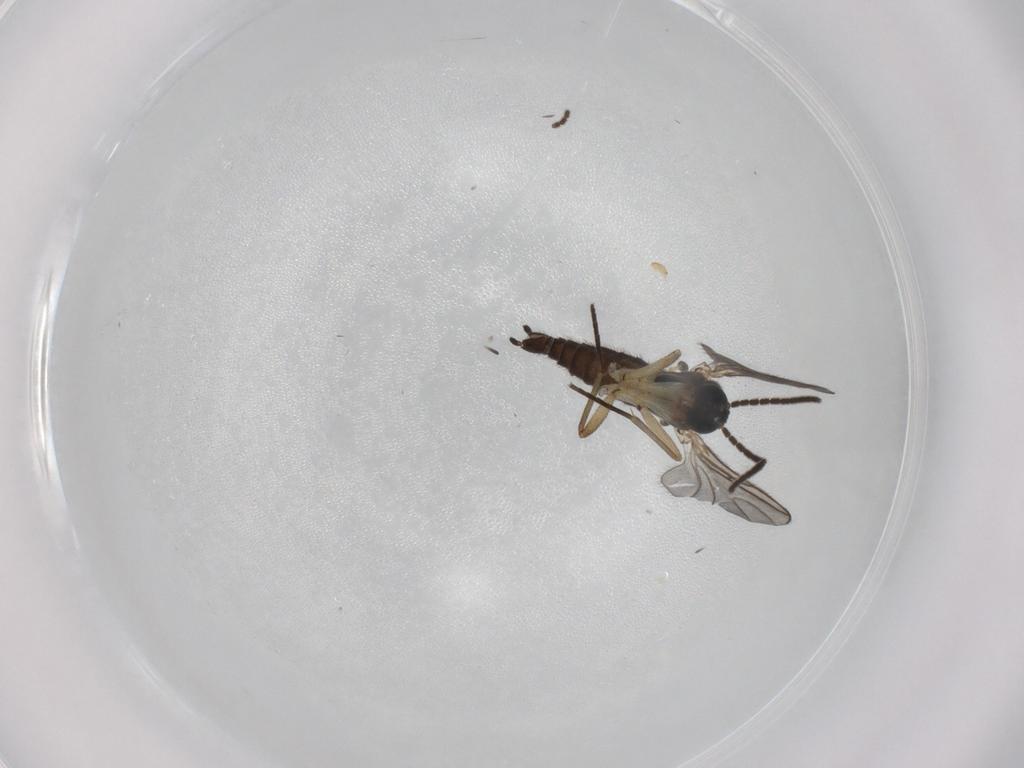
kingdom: Animalia
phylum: Arthropoda
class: Insecta
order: Diptera
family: Sciaridae
